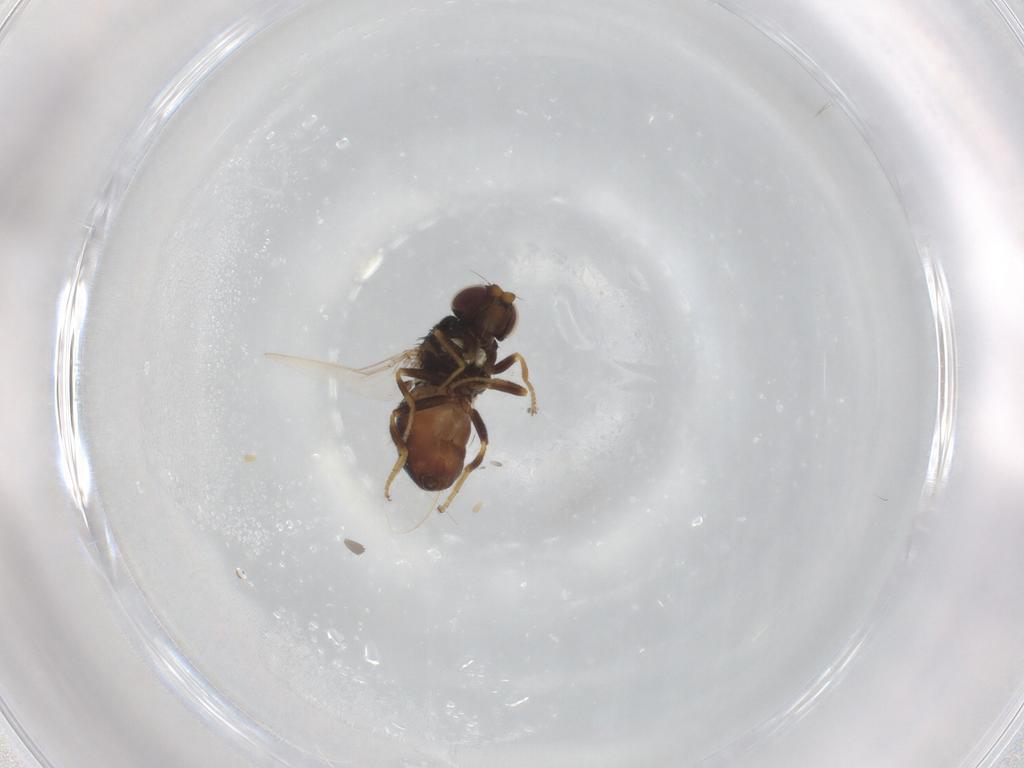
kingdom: Animalia
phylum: Arthropoda
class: Insecta
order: Diptera
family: Chloropidae
